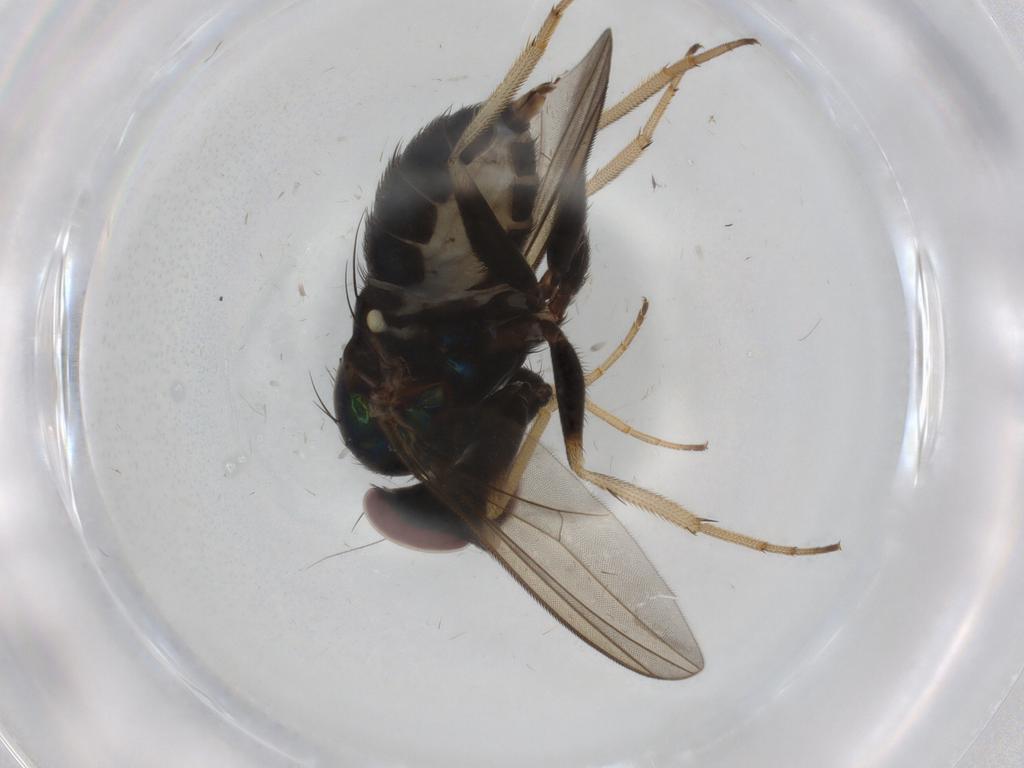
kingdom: Animalia
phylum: Arthropoda
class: Insecta
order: Diptera
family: Dolichopodidae
